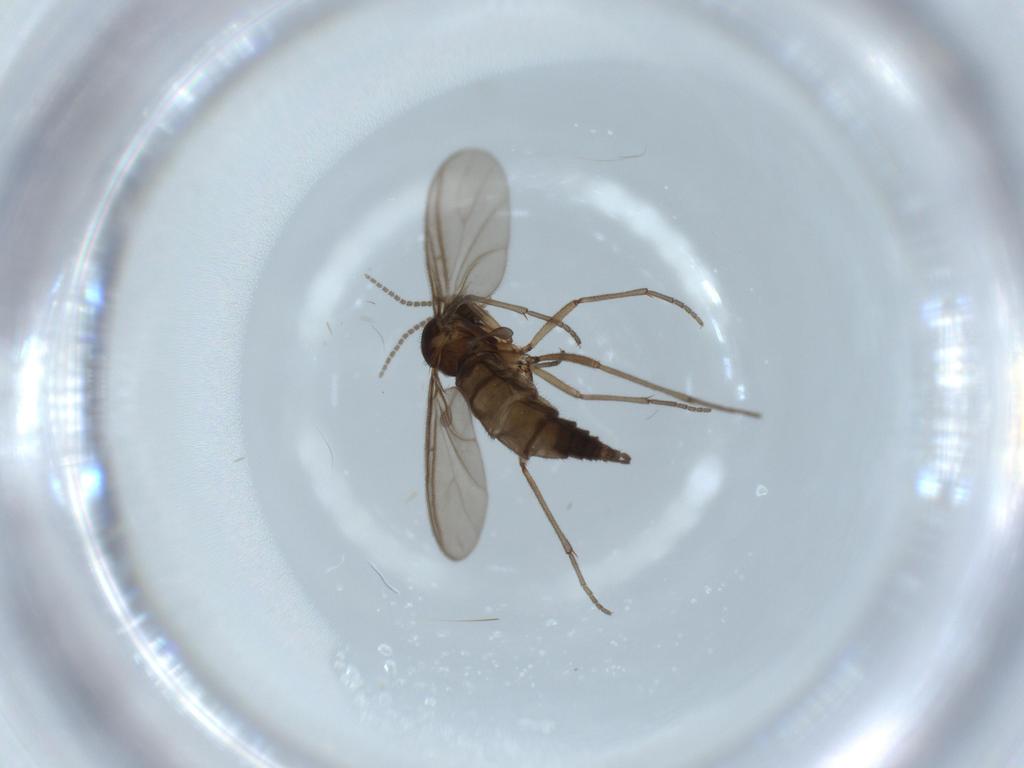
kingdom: Animalia
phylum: Arthropoda
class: Insecta
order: Diptera
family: Sciaridae
